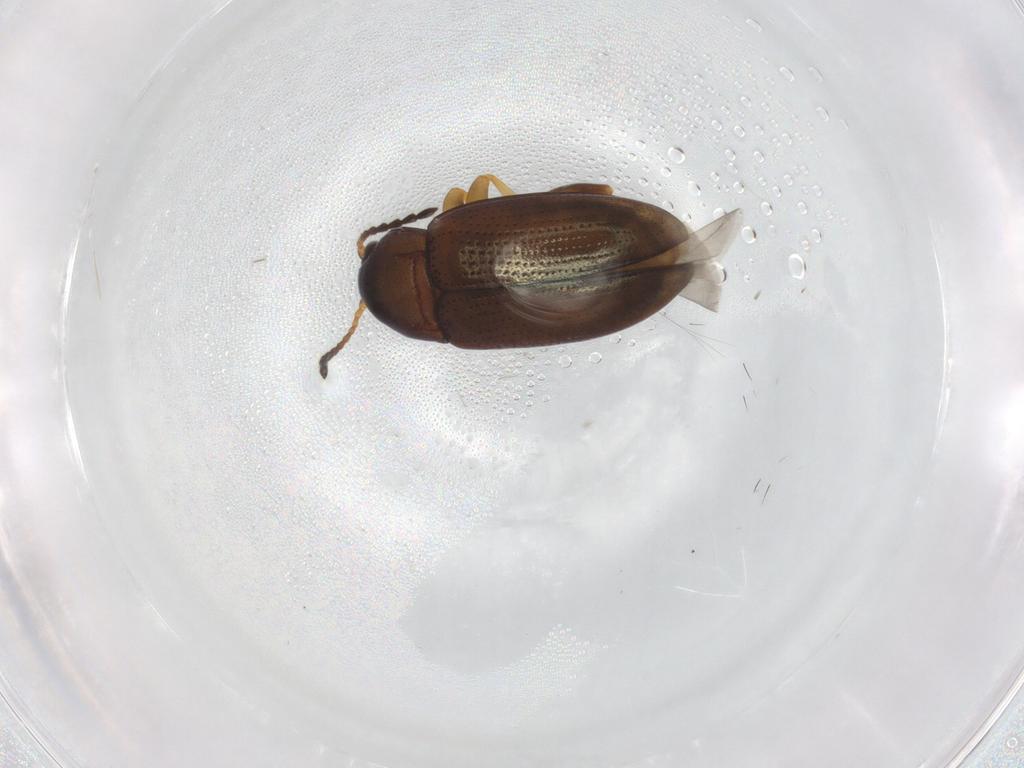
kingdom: Animalia
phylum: Arthropoda
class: Insecta
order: Coleoptera
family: Chrysomelidae
